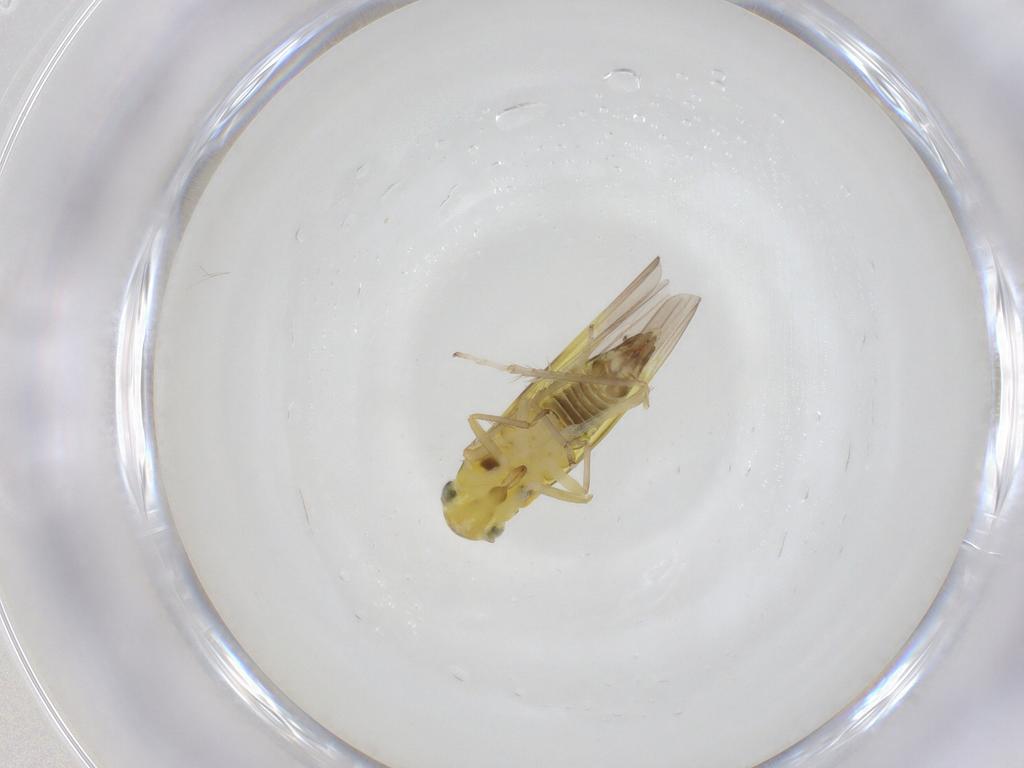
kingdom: Animalia
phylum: Arthropoda
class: Insecta
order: Hemiptera
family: Cicadellidae
